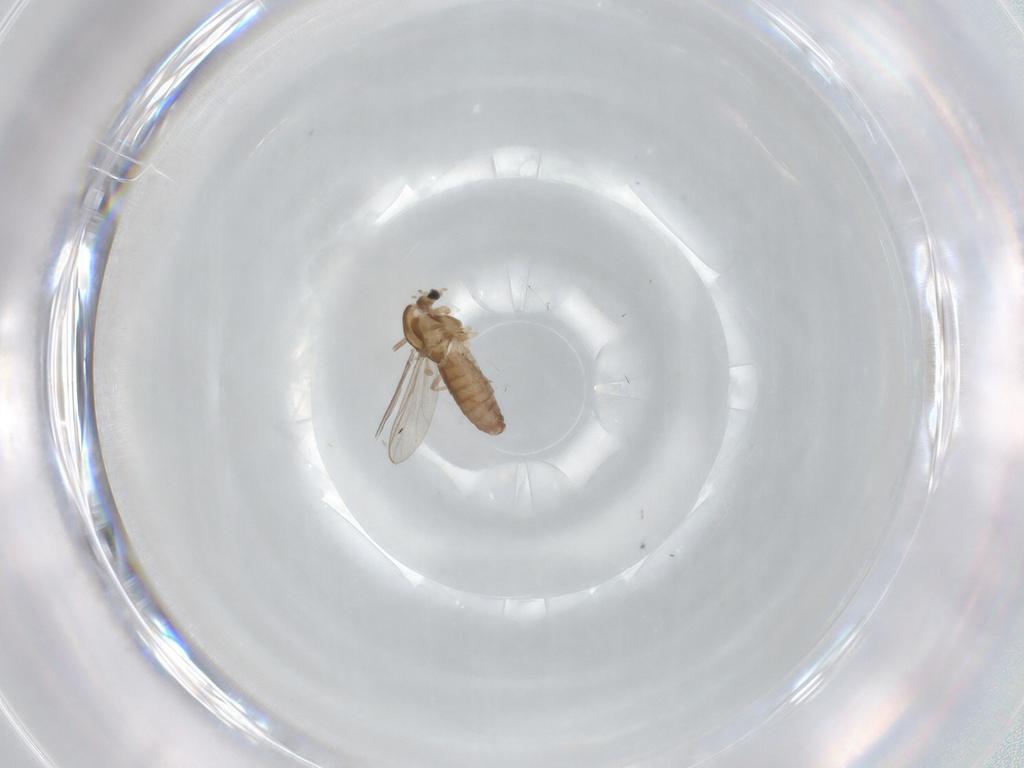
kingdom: Animalia
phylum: Arthropoda
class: Insecta
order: Diptera
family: Chironomidae
